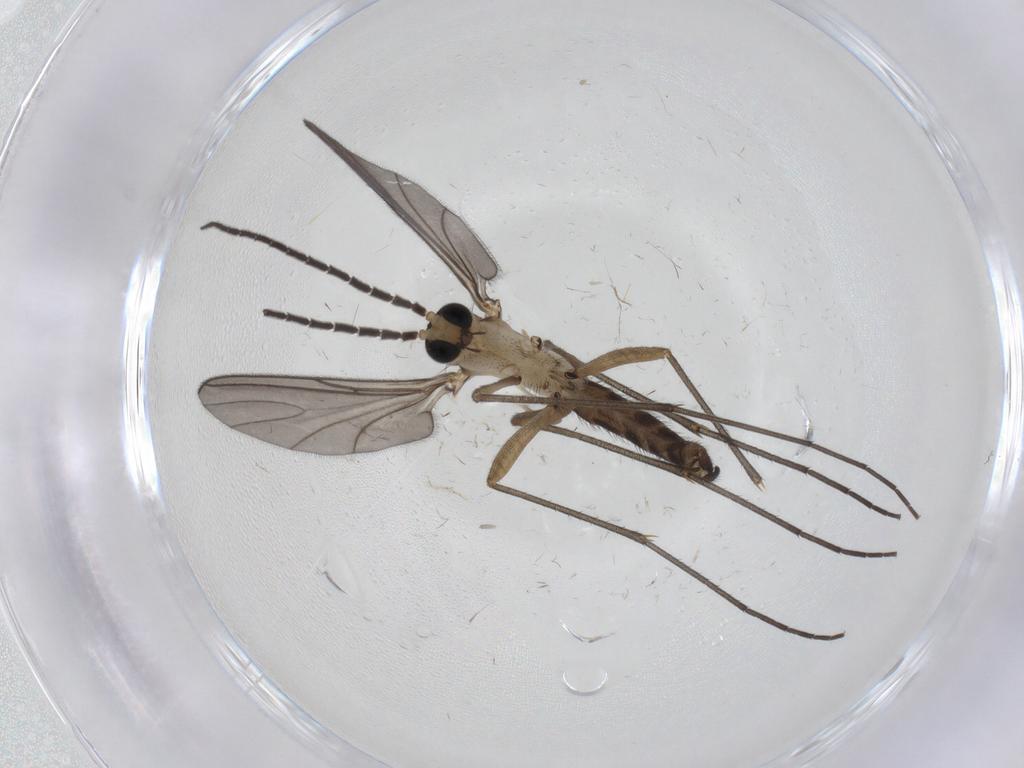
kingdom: Animalia
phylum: Arthropoda
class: Insecta
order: Diptera
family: Sciaridae
